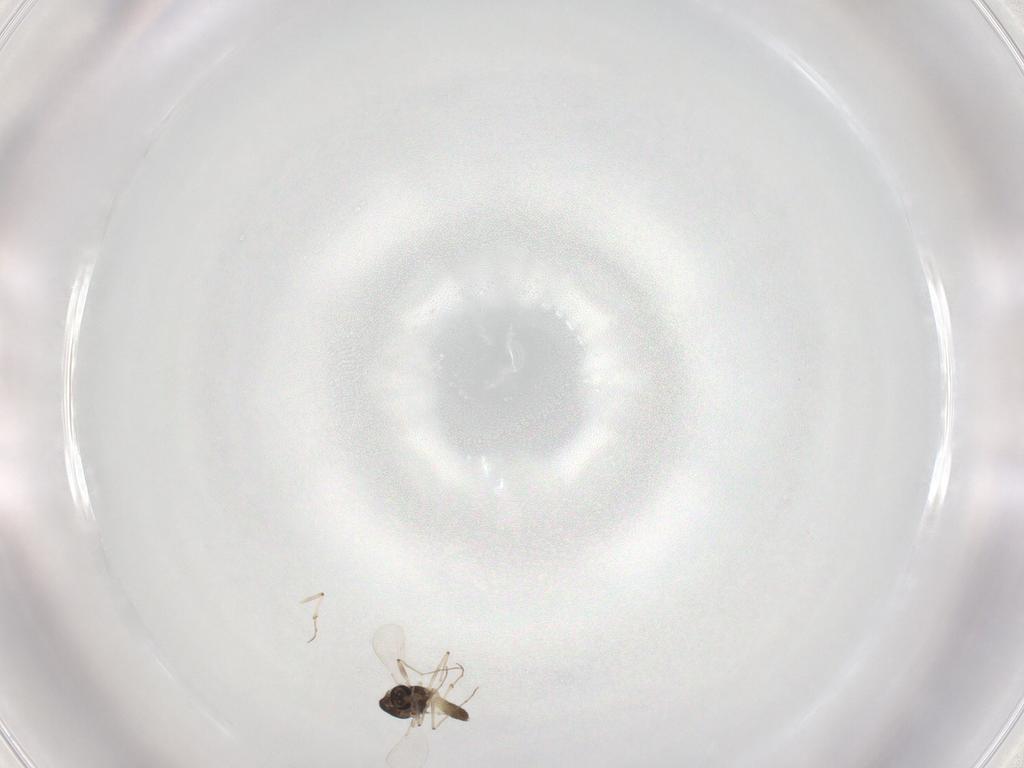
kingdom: Animalia
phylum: Arthropoda
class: Insecta
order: Diptera
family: Chironomidae
